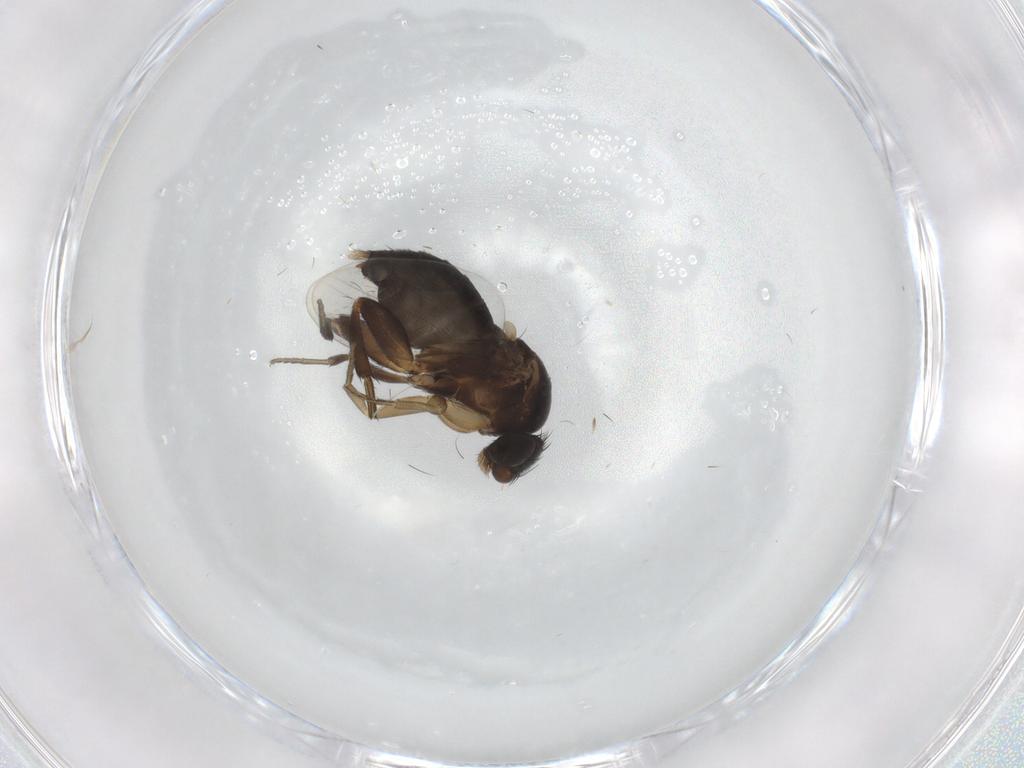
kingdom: Animalia
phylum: Arthropoda
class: Insecta
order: Diptera
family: Phoridae
